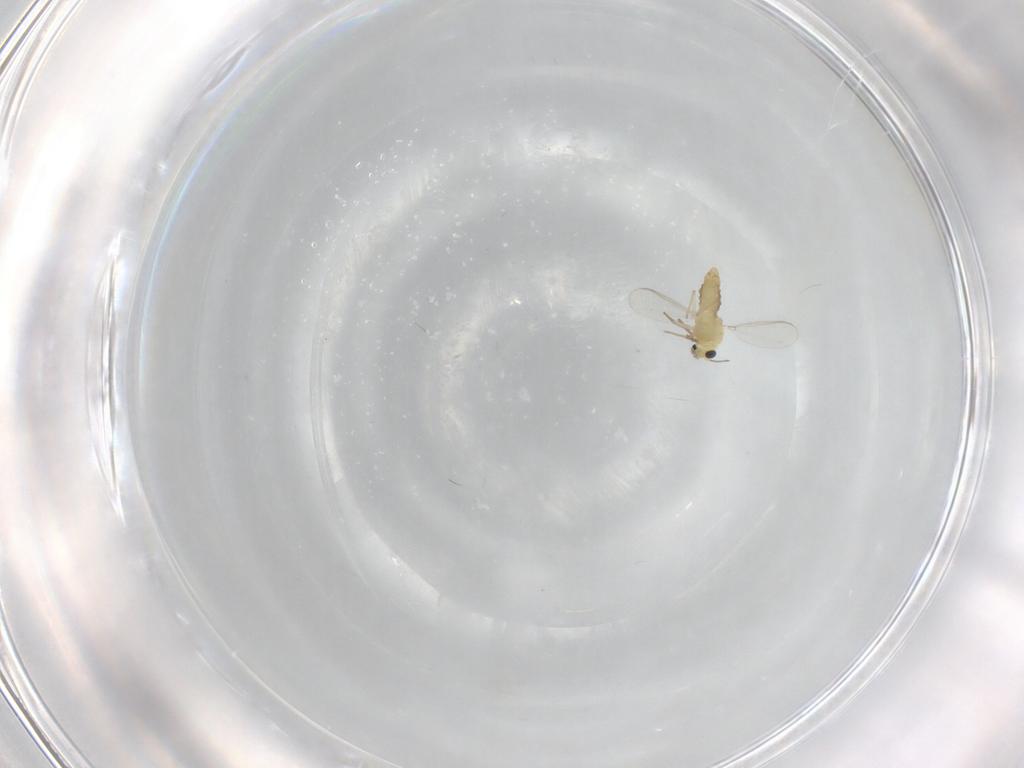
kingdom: Animalia
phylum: Arthropoda
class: Insecta
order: Diptera
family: Chironomidae
